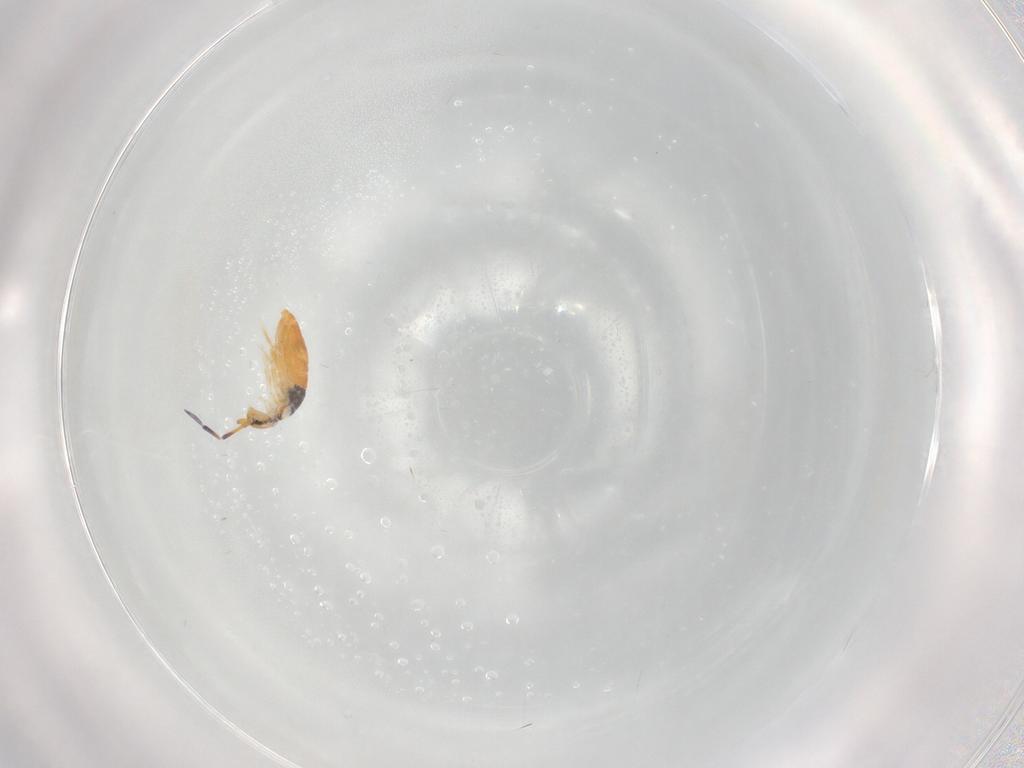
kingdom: Animalia
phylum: Arthropoda
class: Collembola
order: Entomobryomorpha
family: Entomobryidae
